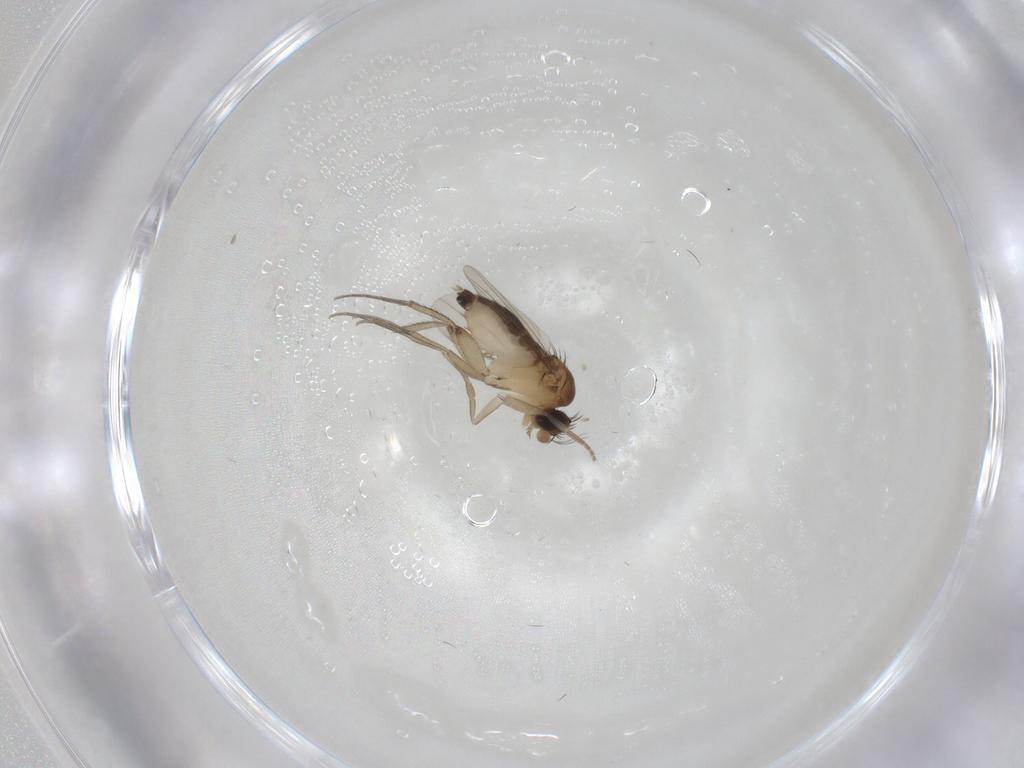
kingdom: Animalia
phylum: Arthropoda
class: Insecta
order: Diptera
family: Phoridae
